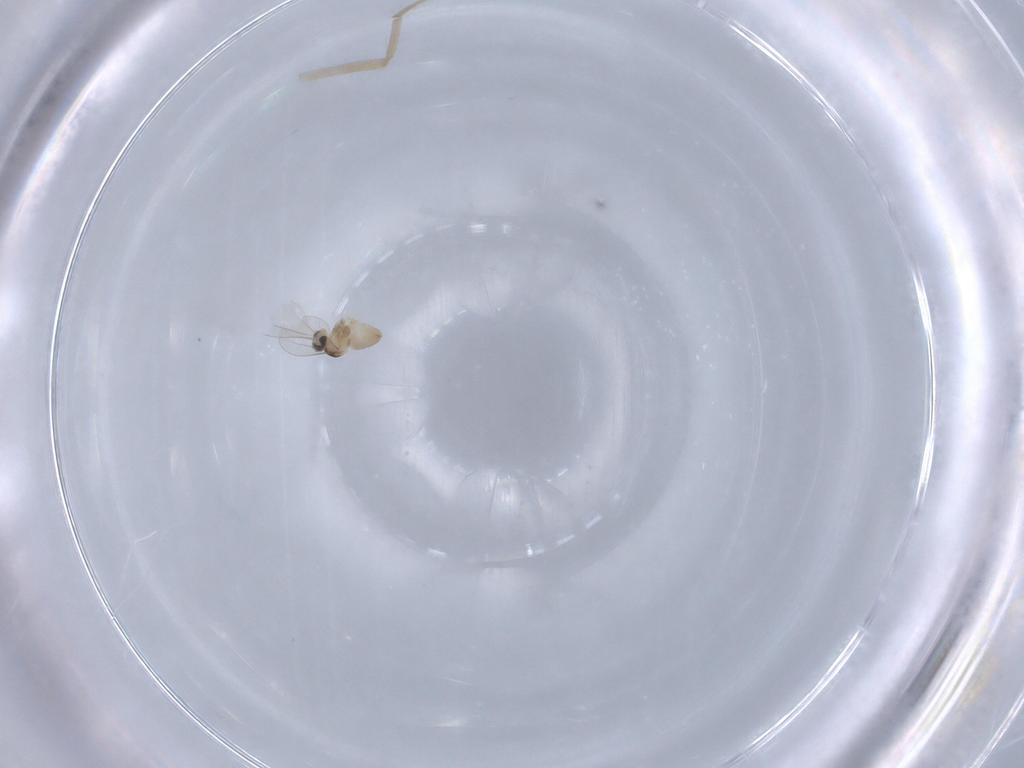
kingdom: Animalia
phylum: Arthropoda
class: Insecta
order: Diptera
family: Cecidomyiidae
